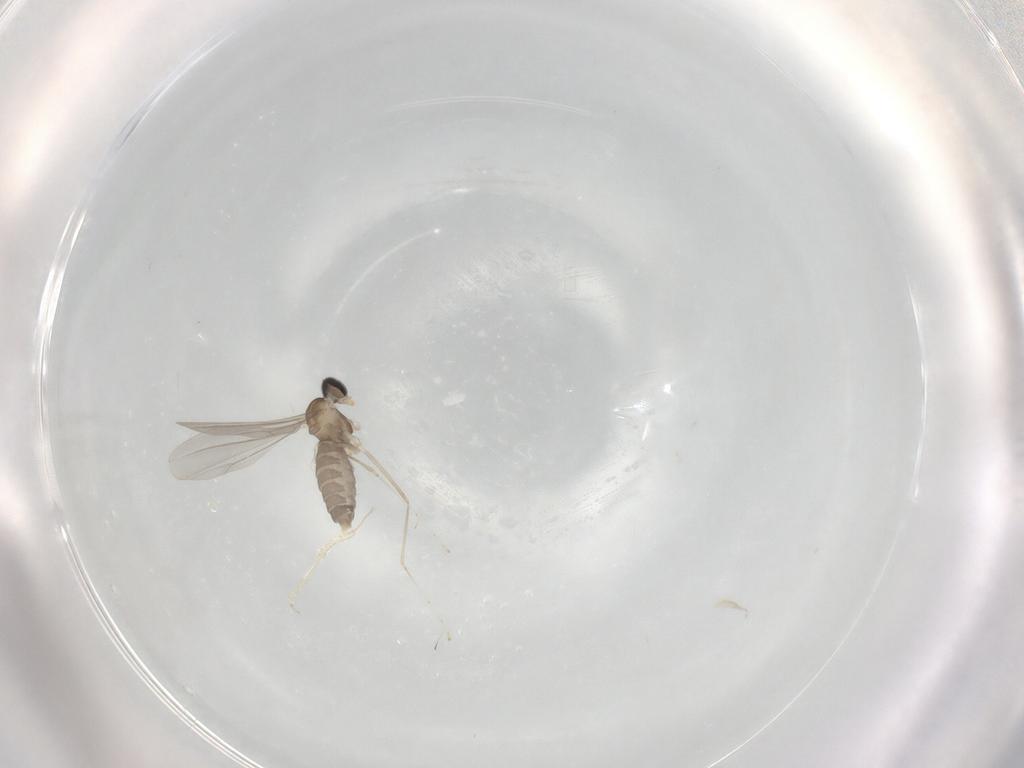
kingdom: Animalia
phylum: Arthropoda
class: Insecta
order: Diptera
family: Cecidomyiidae
